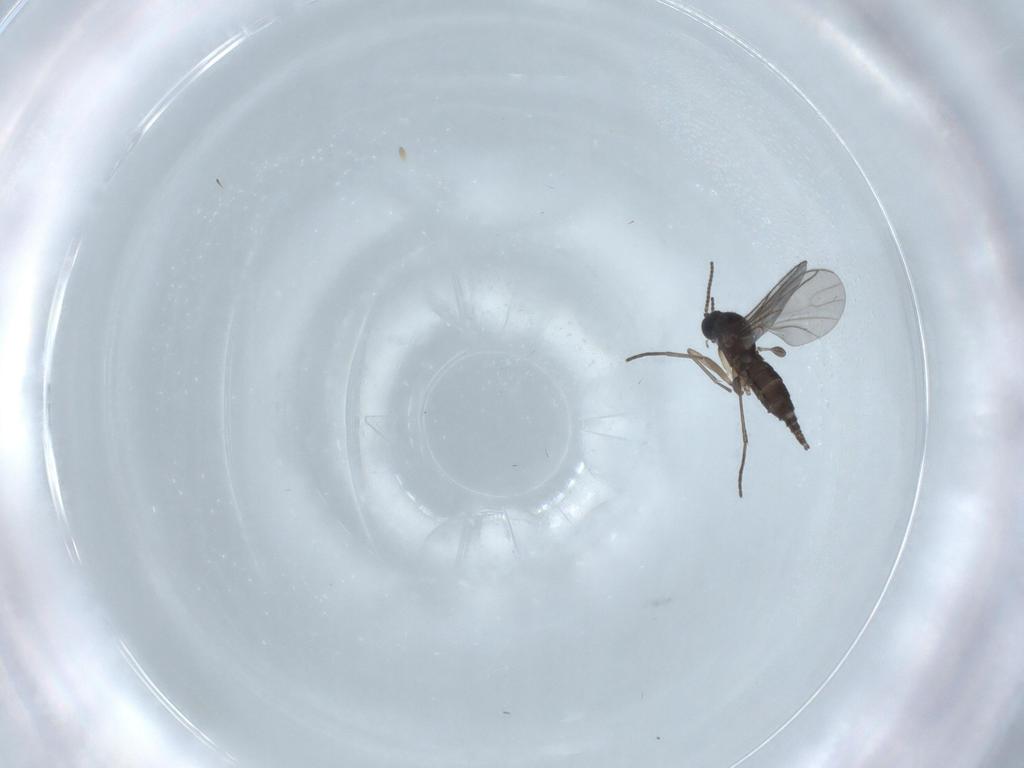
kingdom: Animalia
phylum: Arthropoda
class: Insecta
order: Diptera
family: Sciaridae
